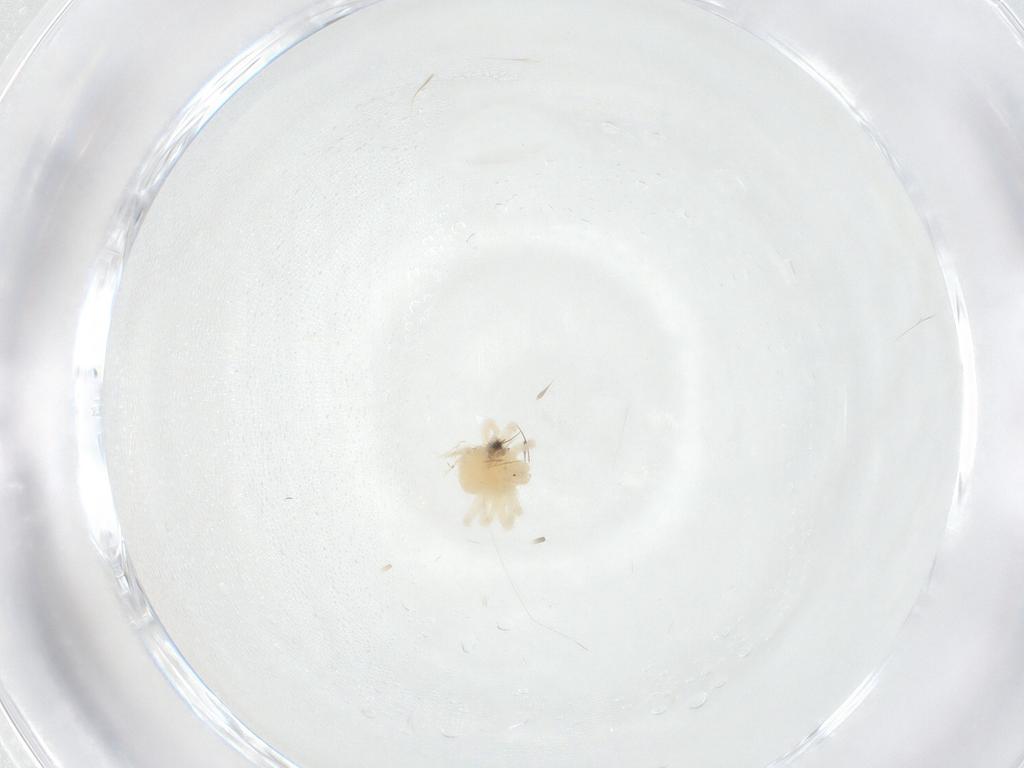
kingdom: Animalia
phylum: Arthropoda
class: Arachnida
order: Trombidiformes
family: Anystidae
